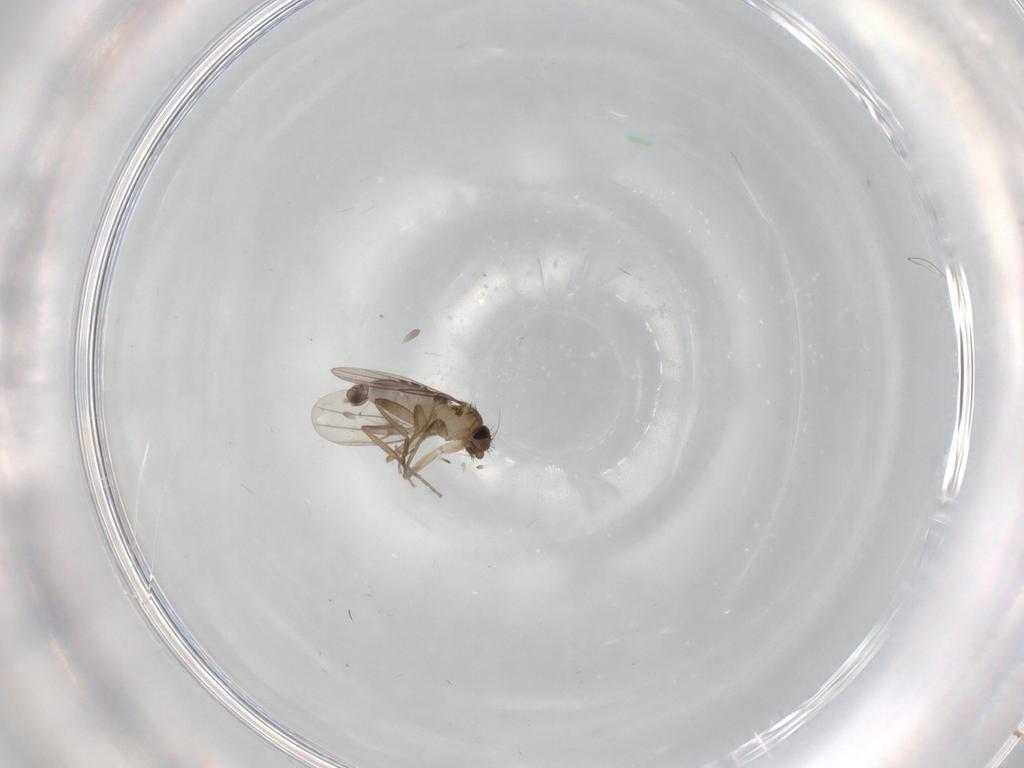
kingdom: Animalia
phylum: Arthropoda
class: Insecta
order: Diptera
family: Phoridae
